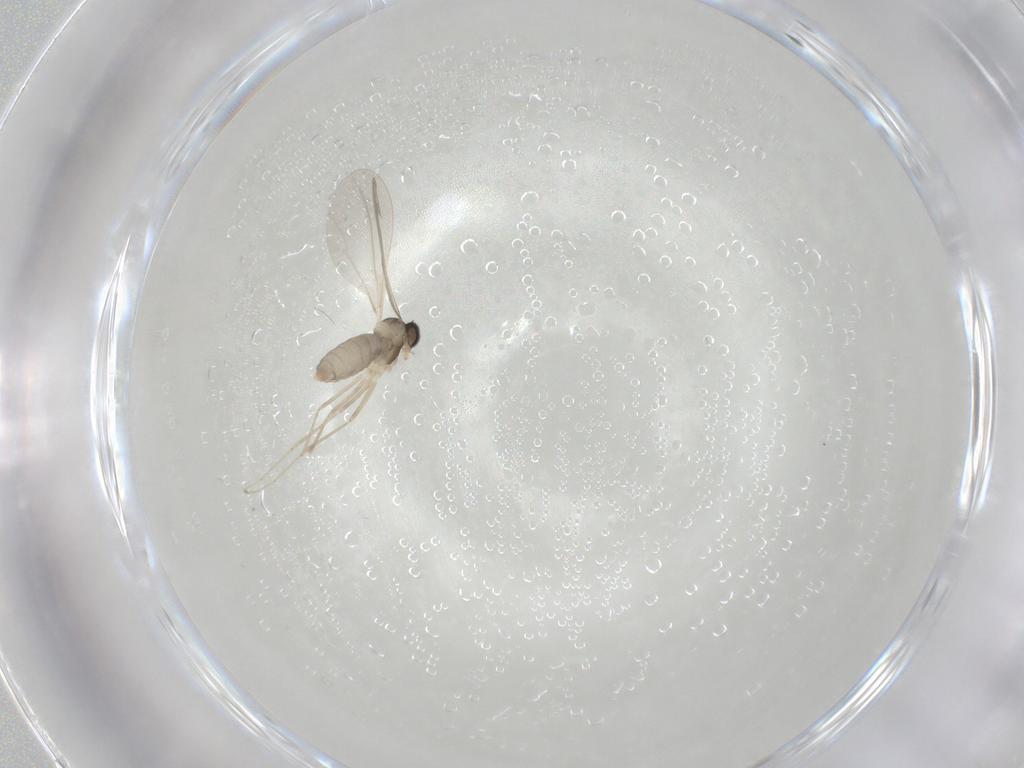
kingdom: Animalia
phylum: Arthropoda
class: Insecta
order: Diptera
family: Cecidomyiidae
